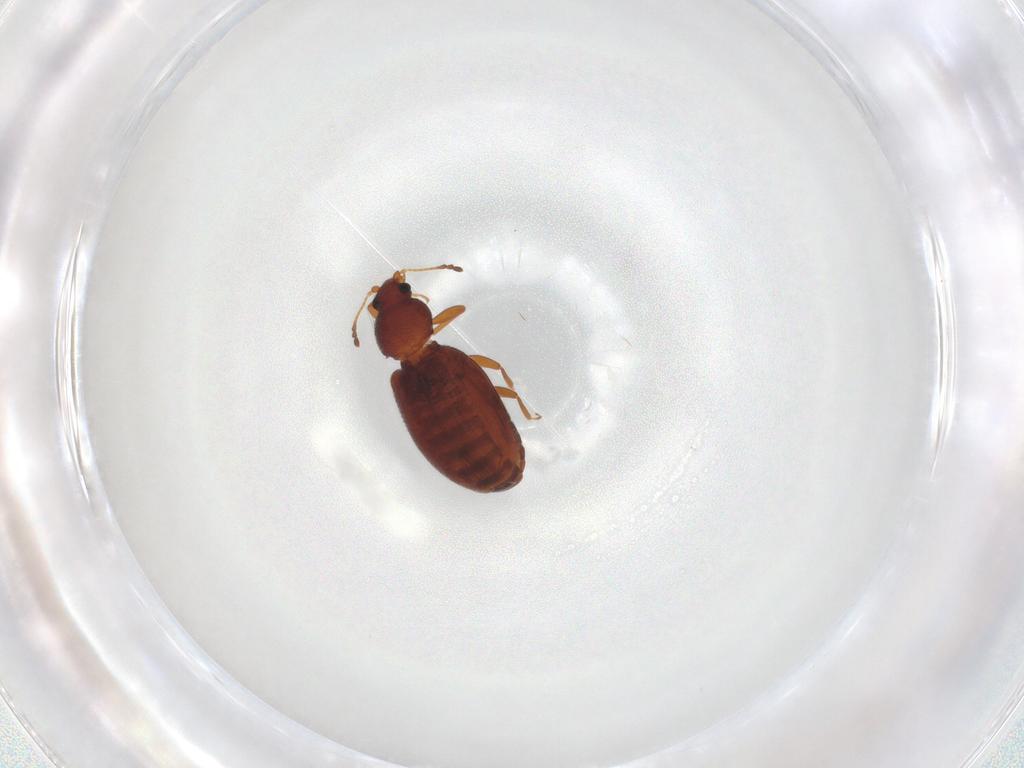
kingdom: Animalia
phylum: Arthropoda
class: Insecta
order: Coleoptera
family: Latridiidae
